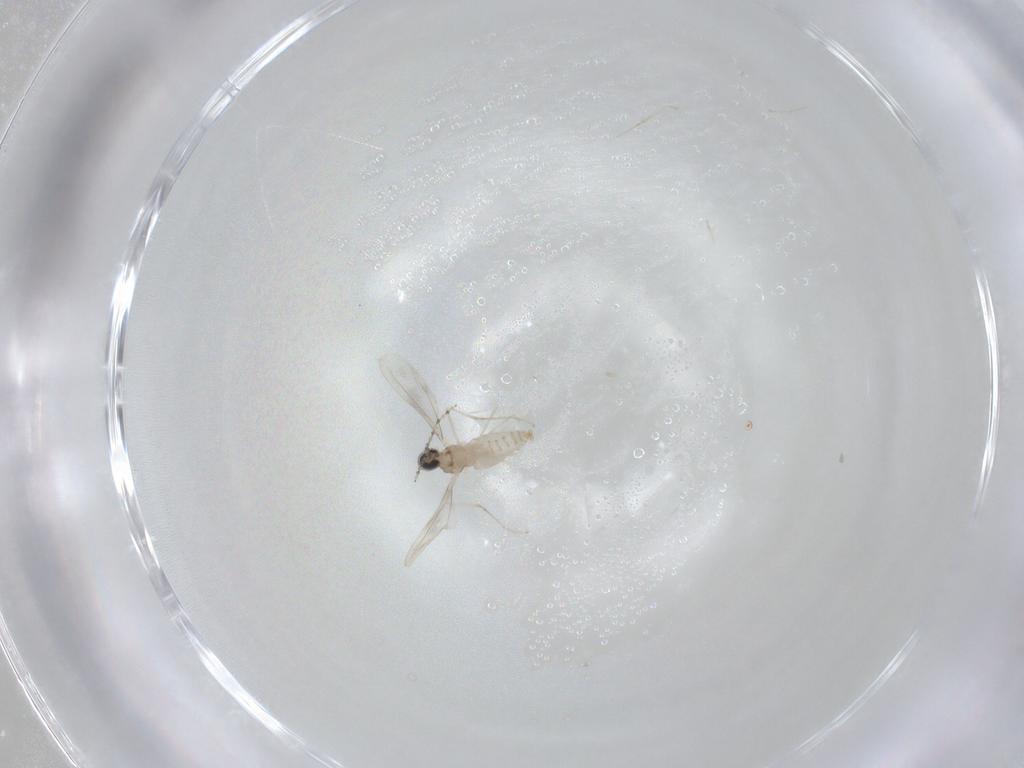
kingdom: Animalia
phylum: Arthropoda
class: Insecta
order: Diptera
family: Cecidomyiidae
